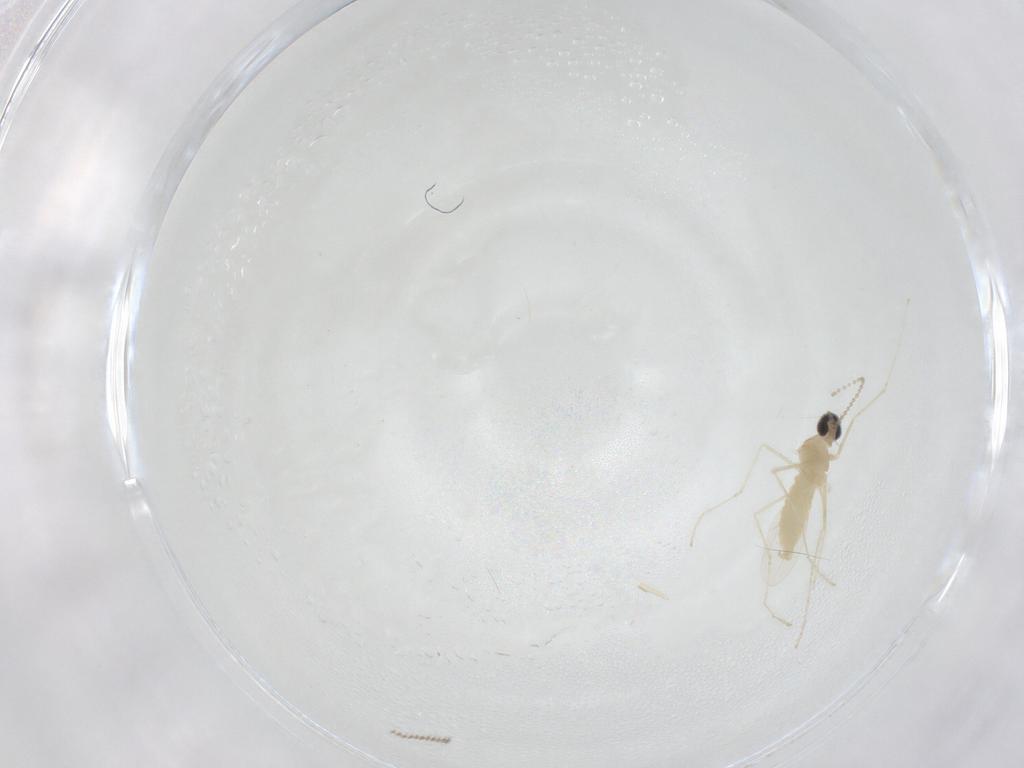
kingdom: Animalia
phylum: Arthropoda
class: Insecta
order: Diptera
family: Cecidomyiidae
